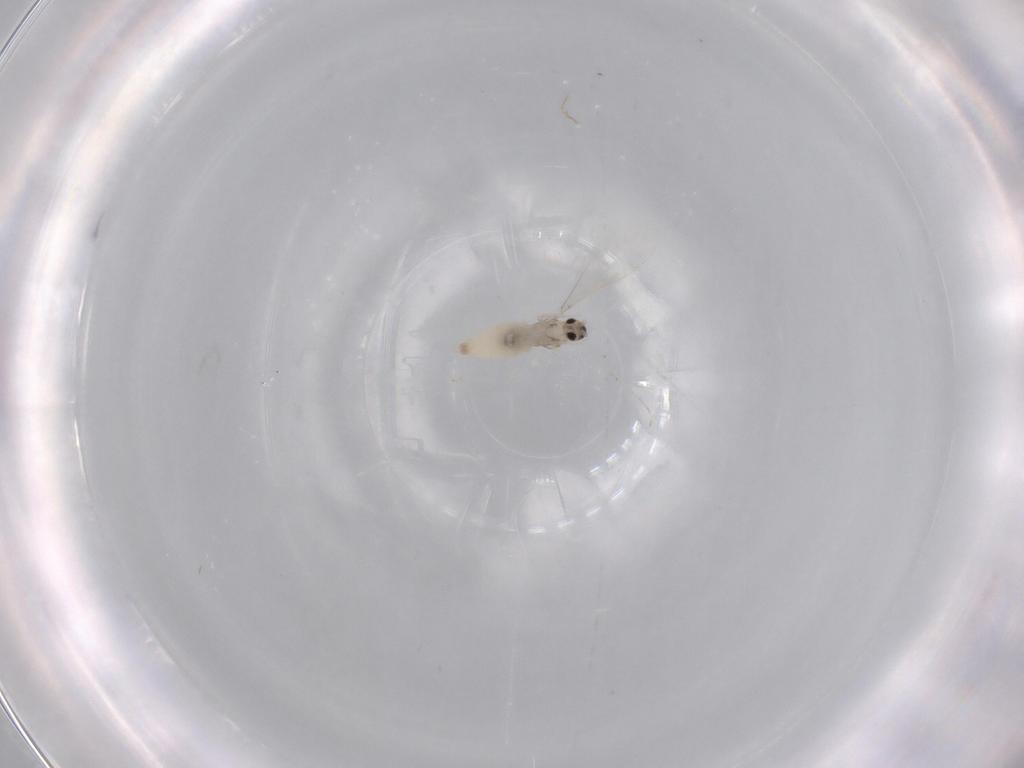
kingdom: Animalia
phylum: Arthropoda
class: Insecta
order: Diptera
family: Cecidomyiidae
